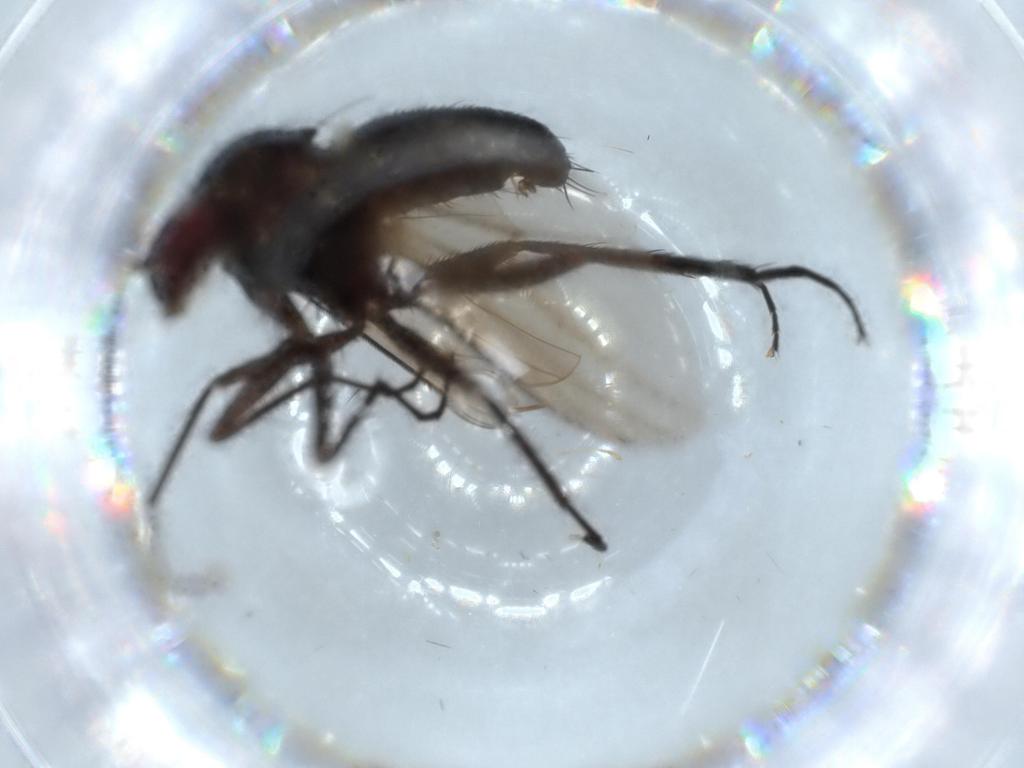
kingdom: Animalia
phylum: Arthropoda
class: Insecta
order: Diptera
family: Dolichopodidae
